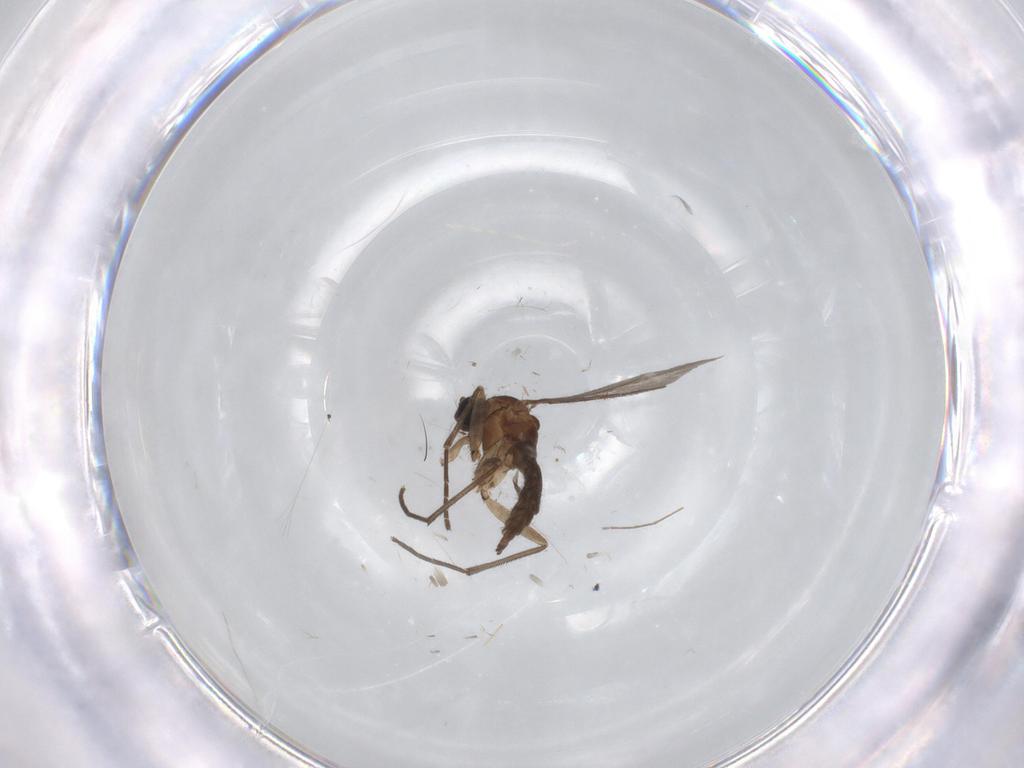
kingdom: Animalia
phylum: Arthropoda
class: Insecta
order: Diptera
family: Sciaridae
